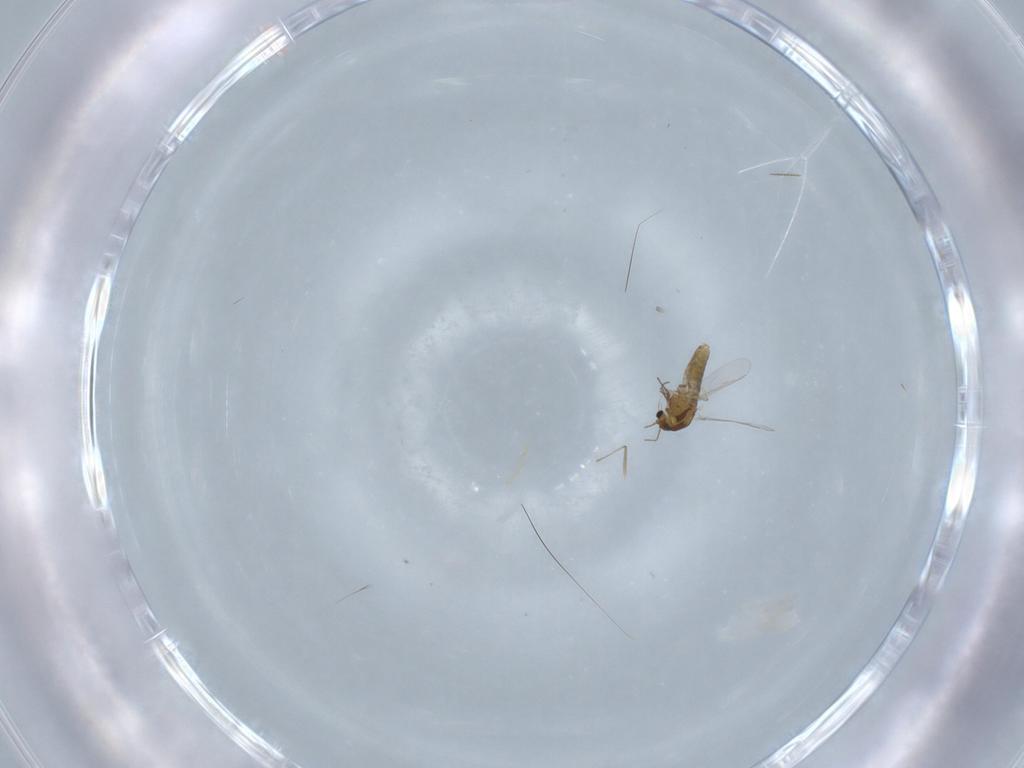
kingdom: Animalia
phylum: Arthropoda
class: Insecta
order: Diptera
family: Chironomidae
